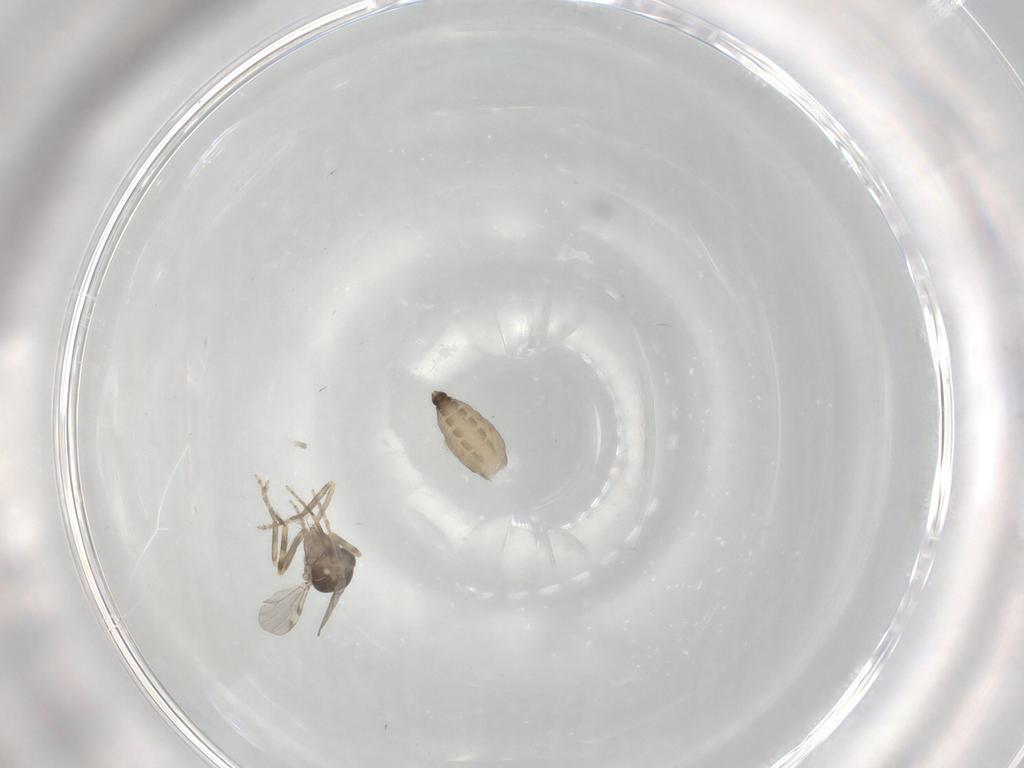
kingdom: Animalia
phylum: Arthropoda
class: Insecta
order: Diptera
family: Ceratopogonidae
